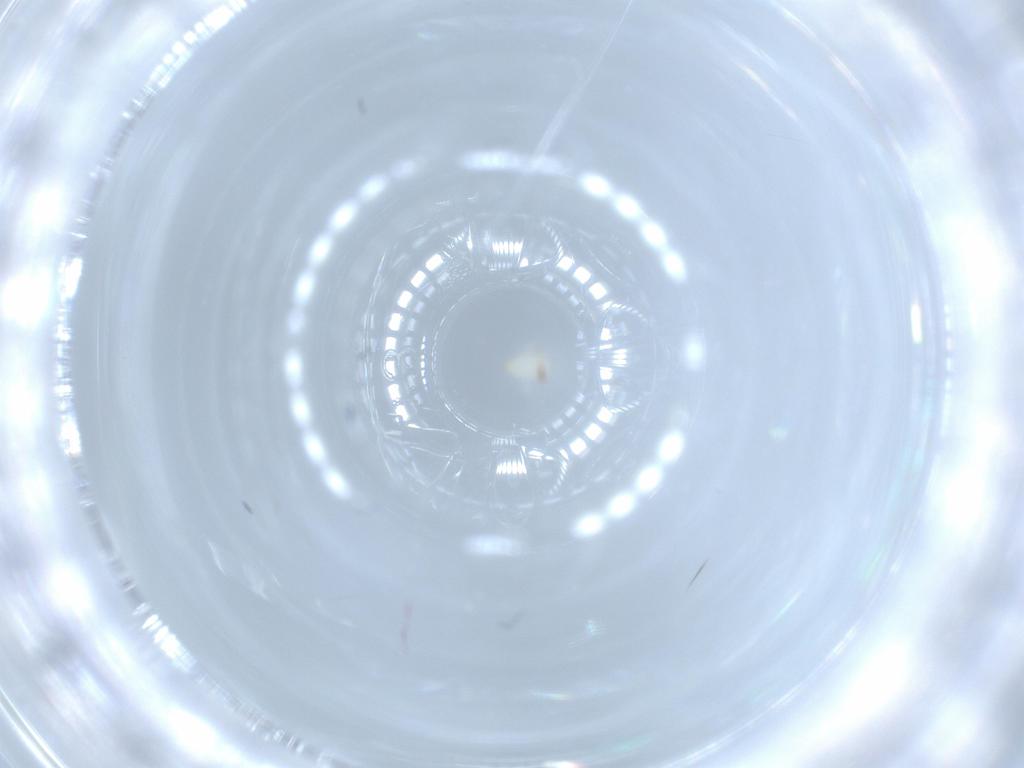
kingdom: Animalia
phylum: Arthropoda
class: Arachnida
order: Trombidiformes
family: Microtrombidiidae
